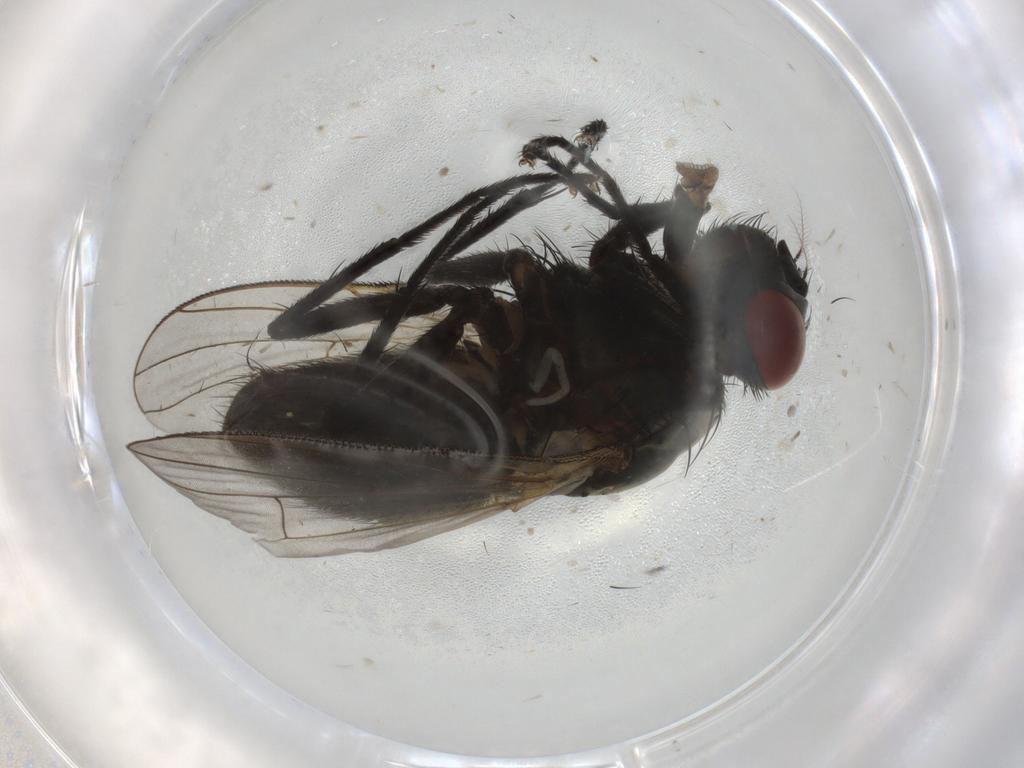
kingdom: Animalia
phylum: Arthropoda
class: Insecta
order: Diptera
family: Muscidae
